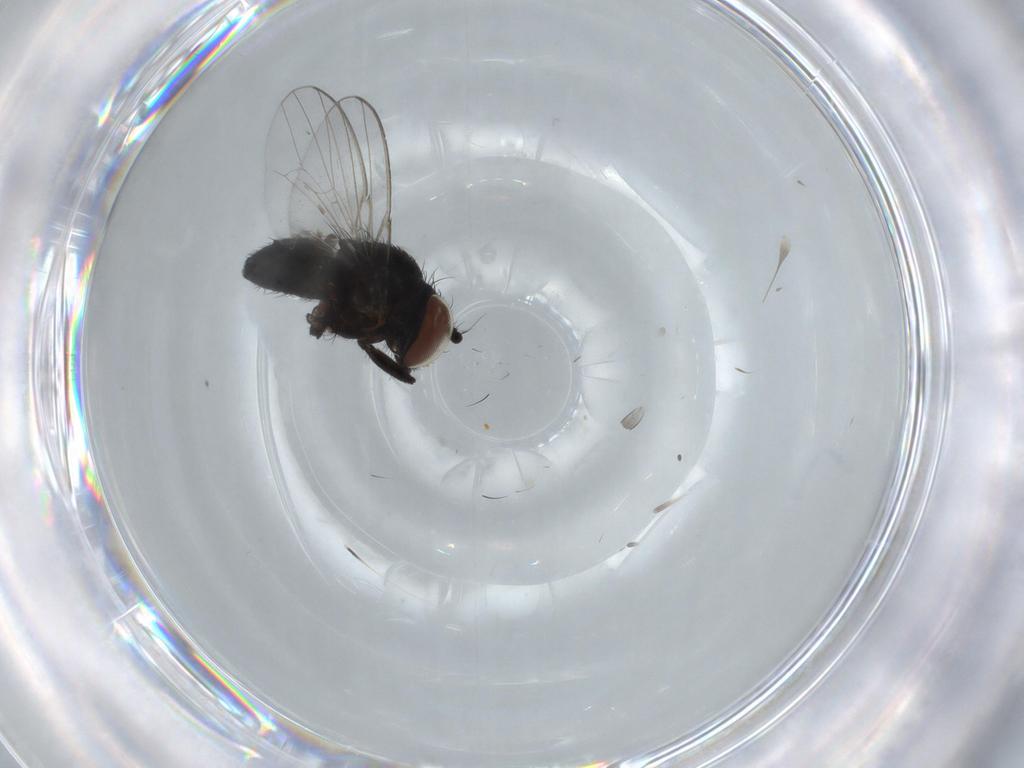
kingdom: Animalia
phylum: Arthropoda
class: Insecta
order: Diptera
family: Milichiidae
